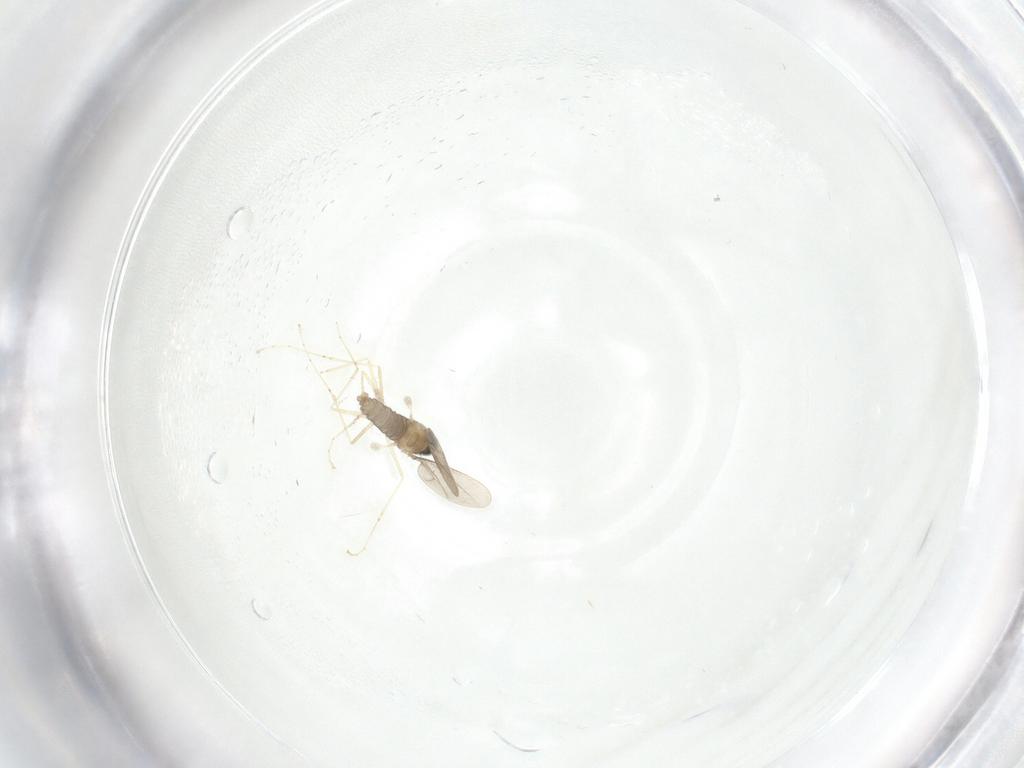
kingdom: Animalia
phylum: Arthropoda
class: Insecta
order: Diptera
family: Cecidomyiidae
